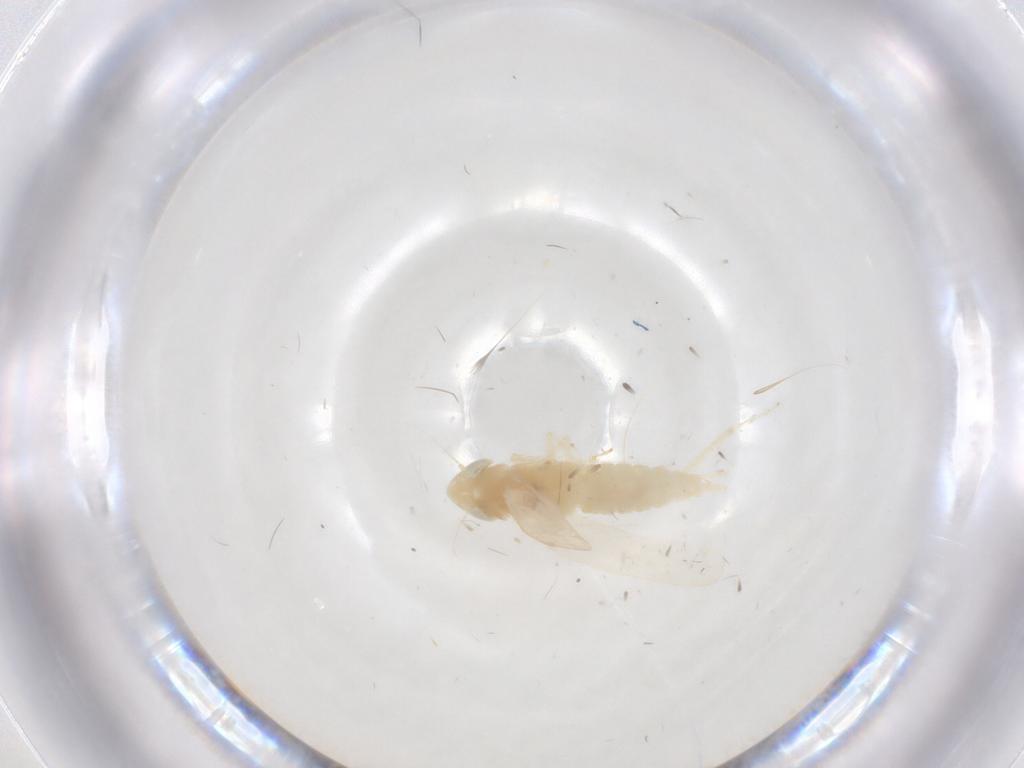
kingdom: Animalia
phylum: Arthropoda
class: Insecta
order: Hemiptera
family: Cicadellidae
